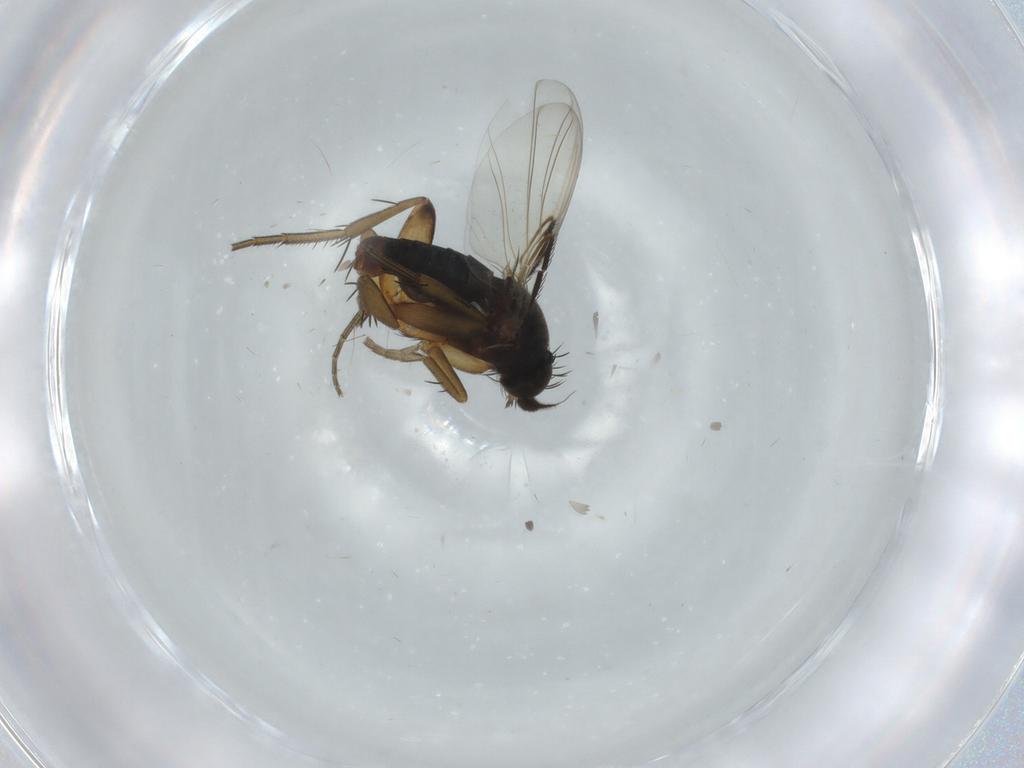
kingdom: Animalia
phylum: Arthropoda
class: Insecta
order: Diptera
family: Phoridae
